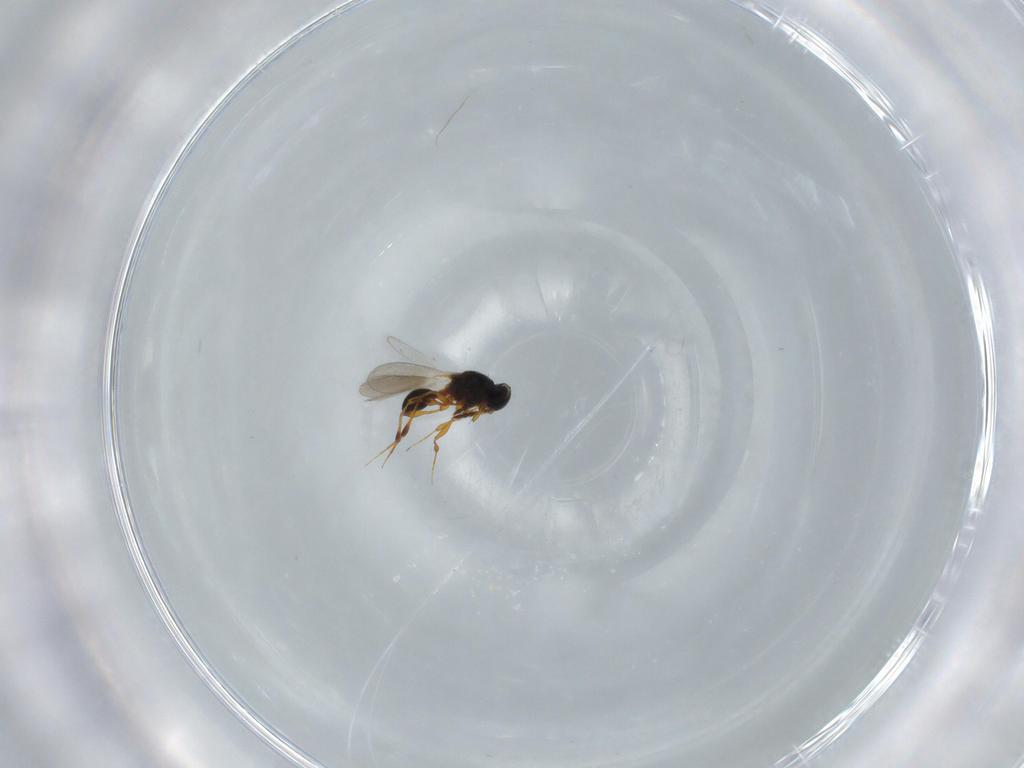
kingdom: Animalia
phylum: Arthropoda
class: Insecta
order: Hymenoptera
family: Platygastridae
